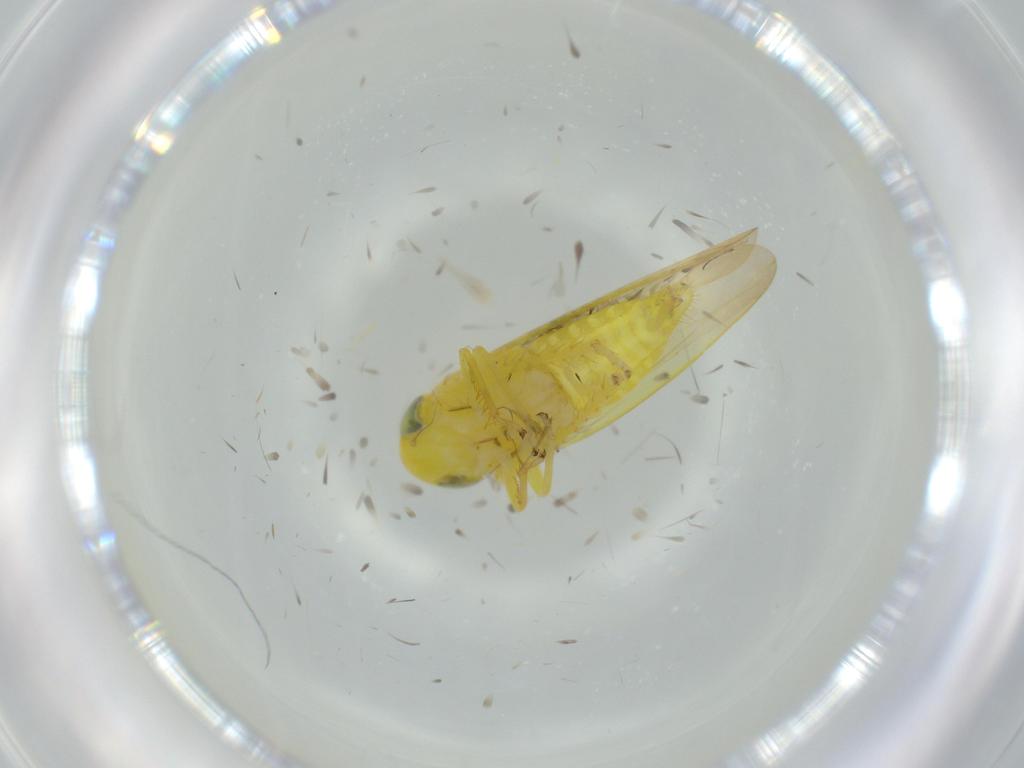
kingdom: Animalia
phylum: Arthropoda
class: Insecta
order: Hemiptera
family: Cicadellidae
